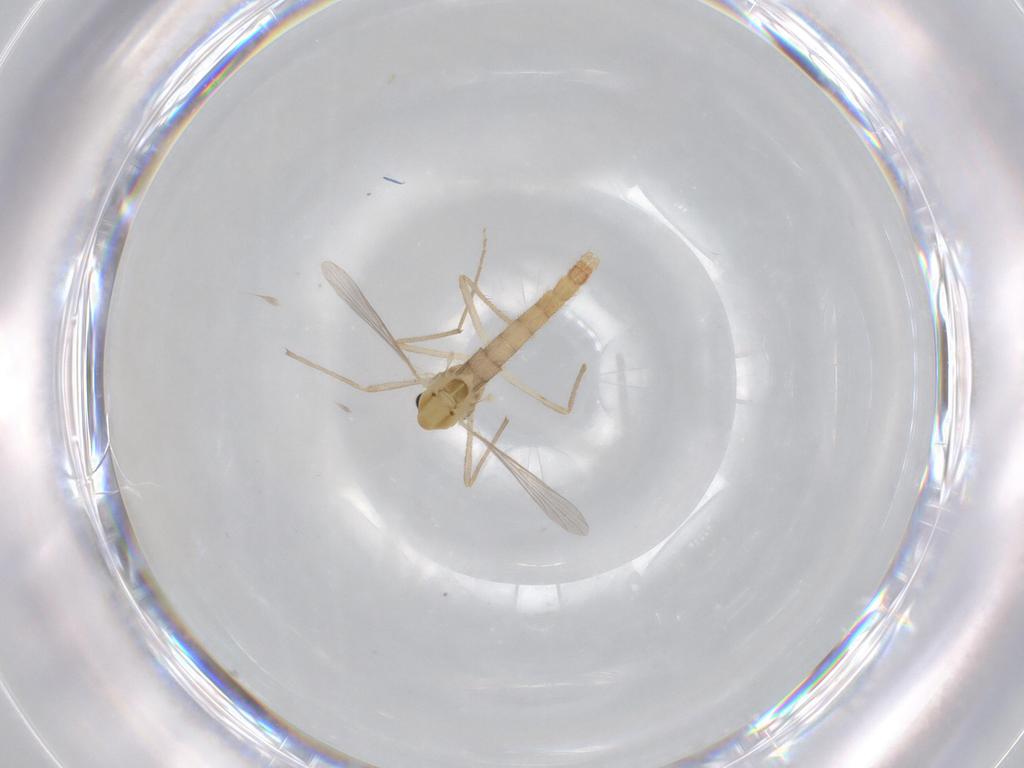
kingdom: Animalia
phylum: Arthropoda
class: Insecta
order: Diptera
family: Chironomidae
